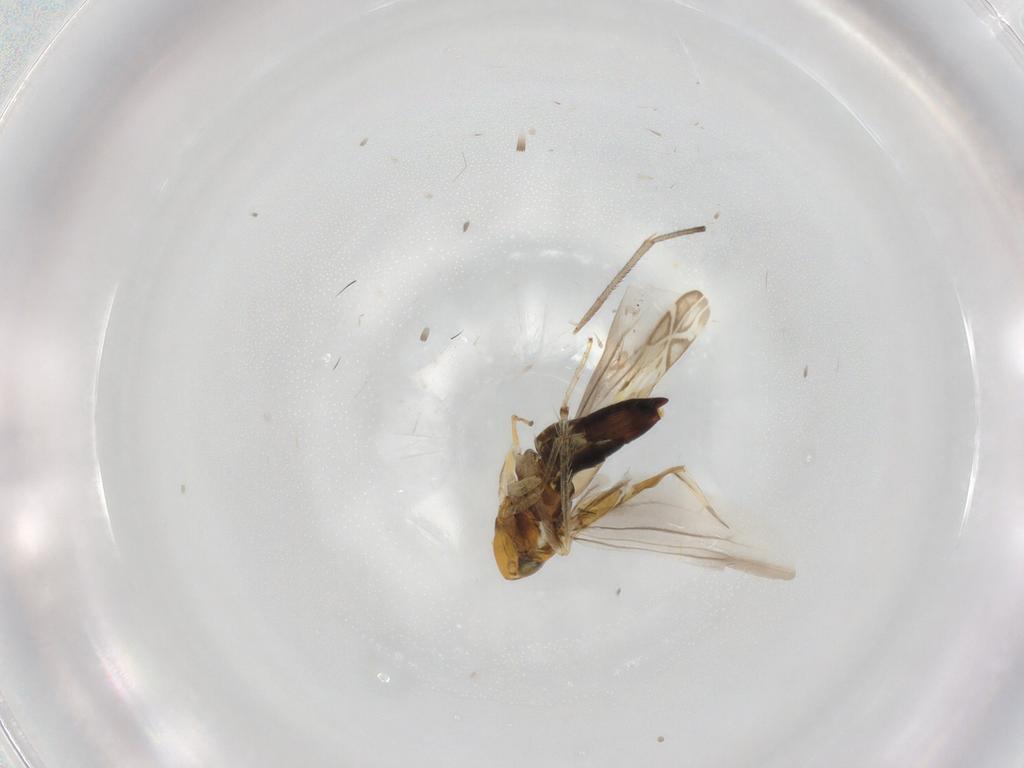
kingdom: Animalia
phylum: Arthropoda
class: Insecta
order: Hemiptera
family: Cicadellidae
